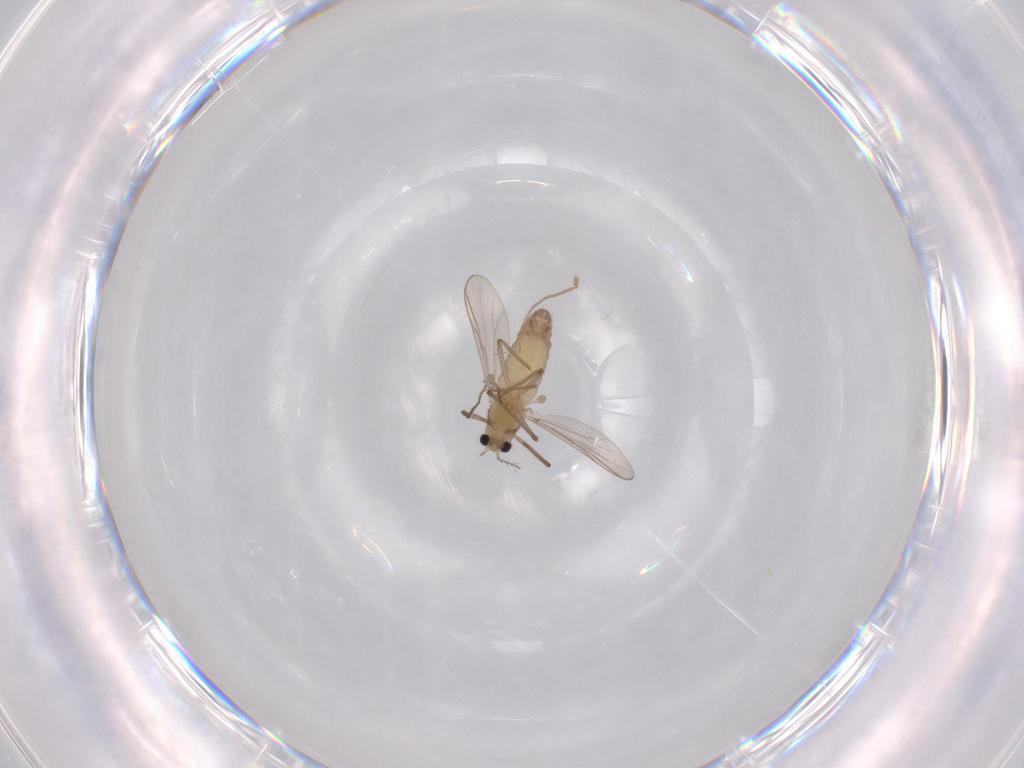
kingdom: Animalia
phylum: Arthropoda
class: Insecta
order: Diptera
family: Chironomidae
